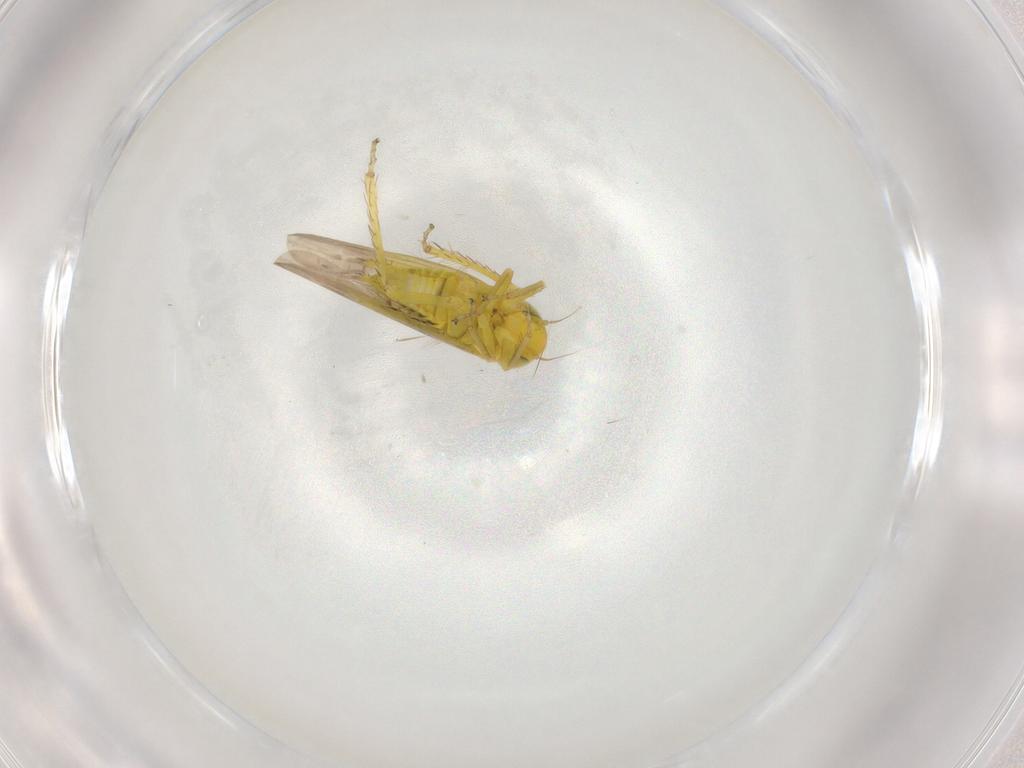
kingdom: Animalia
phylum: Arthropoda
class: Insecta
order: Hemiptera
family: Cicadellidae
